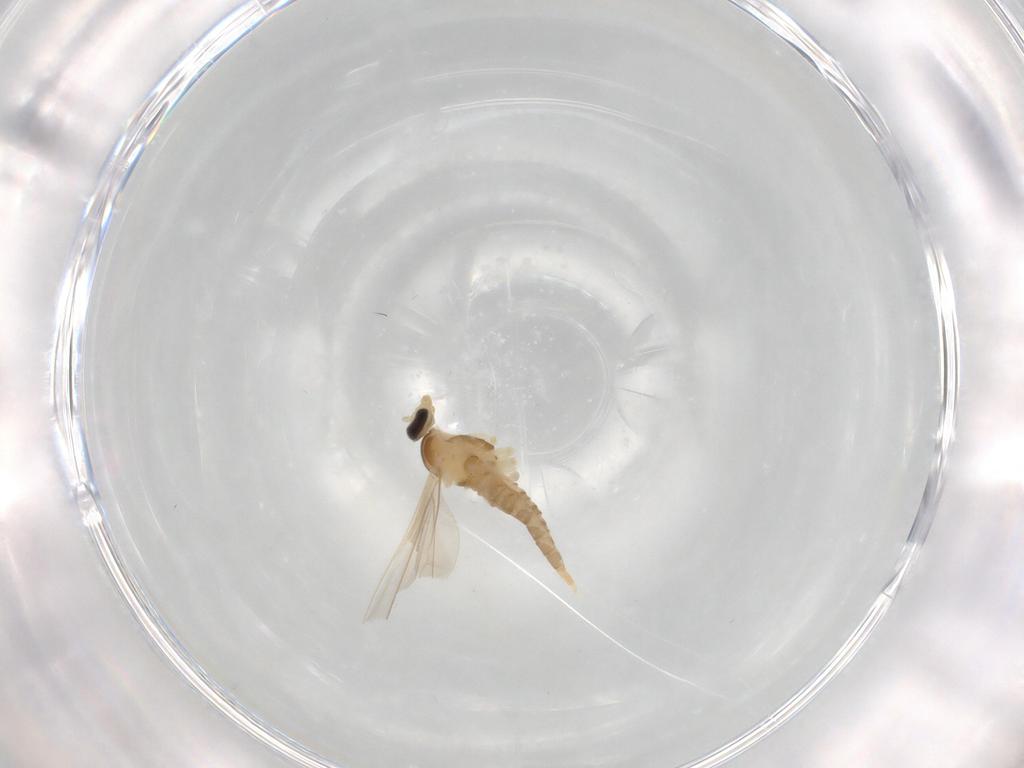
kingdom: Animalia
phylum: Arthropoda
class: Insecta
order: Diptera
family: Cecidomyiidae
